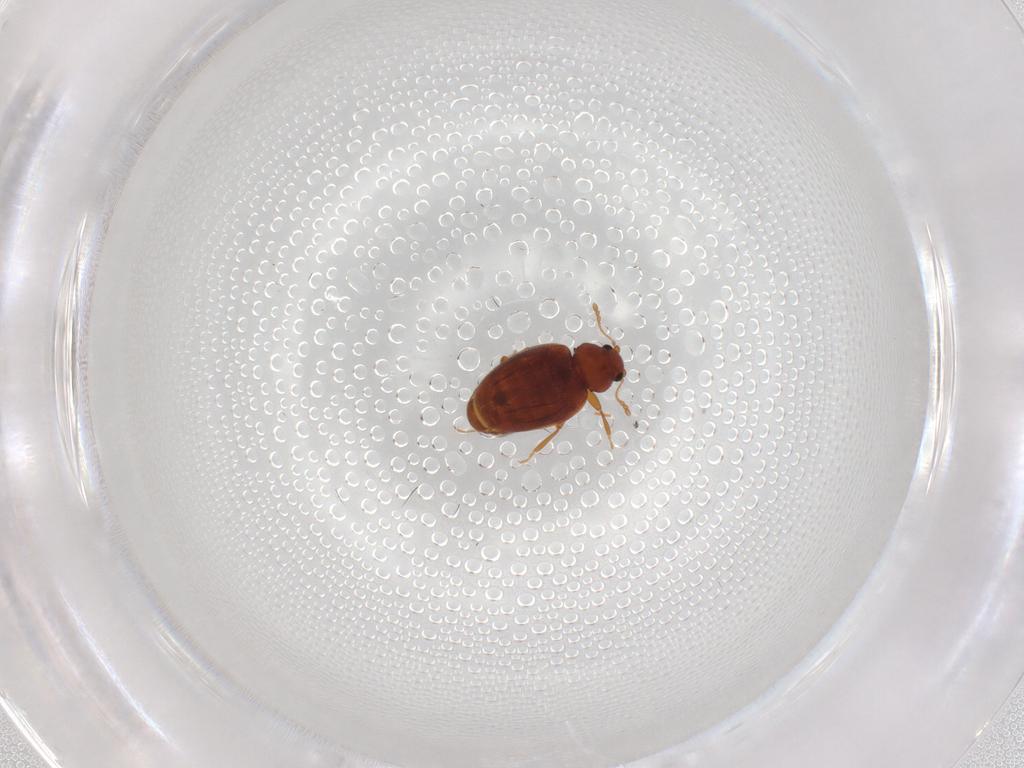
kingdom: Animalia
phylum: Arthropoda
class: Insecta
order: Coleoptera
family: Latridiidae
